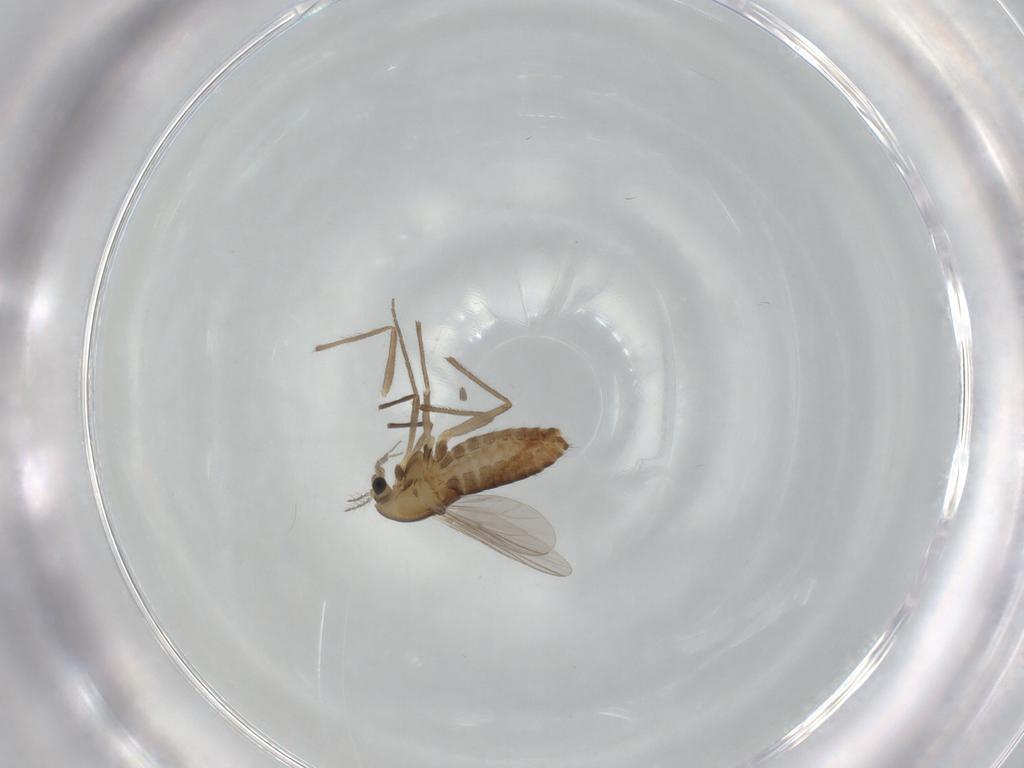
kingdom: Animalia
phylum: Arthropoda
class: Insecta
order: Diptera
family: Chironomidae
